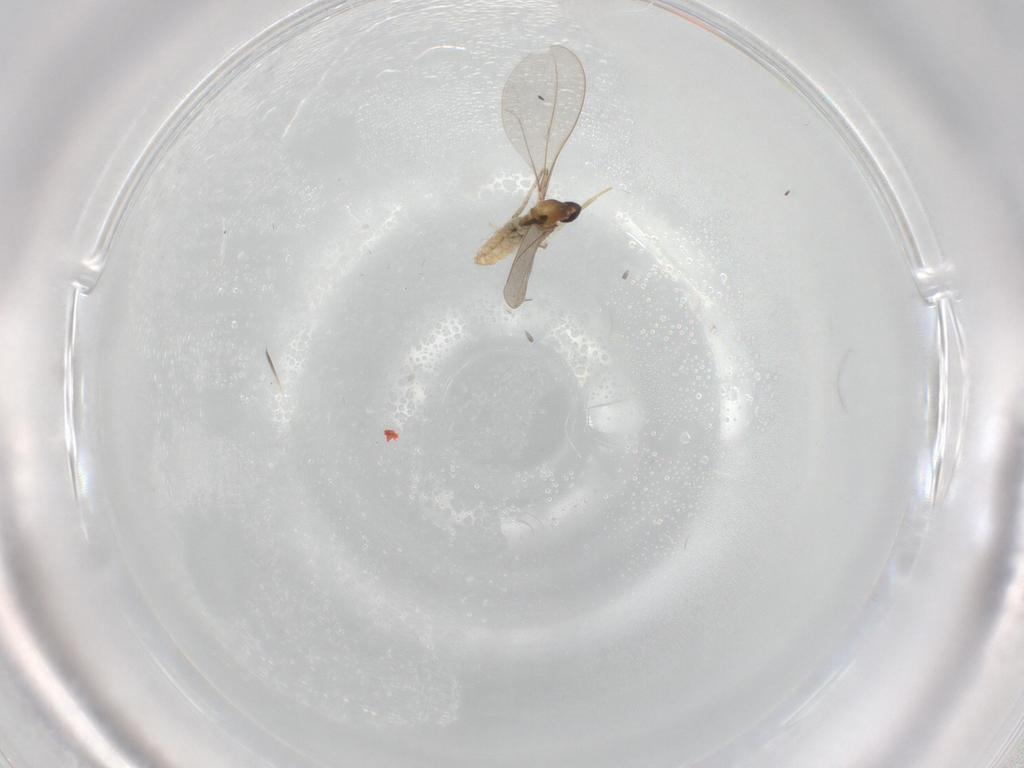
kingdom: Animalia
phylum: Arthropoda
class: Insecta
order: Diptera
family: Cecidomyiidae
